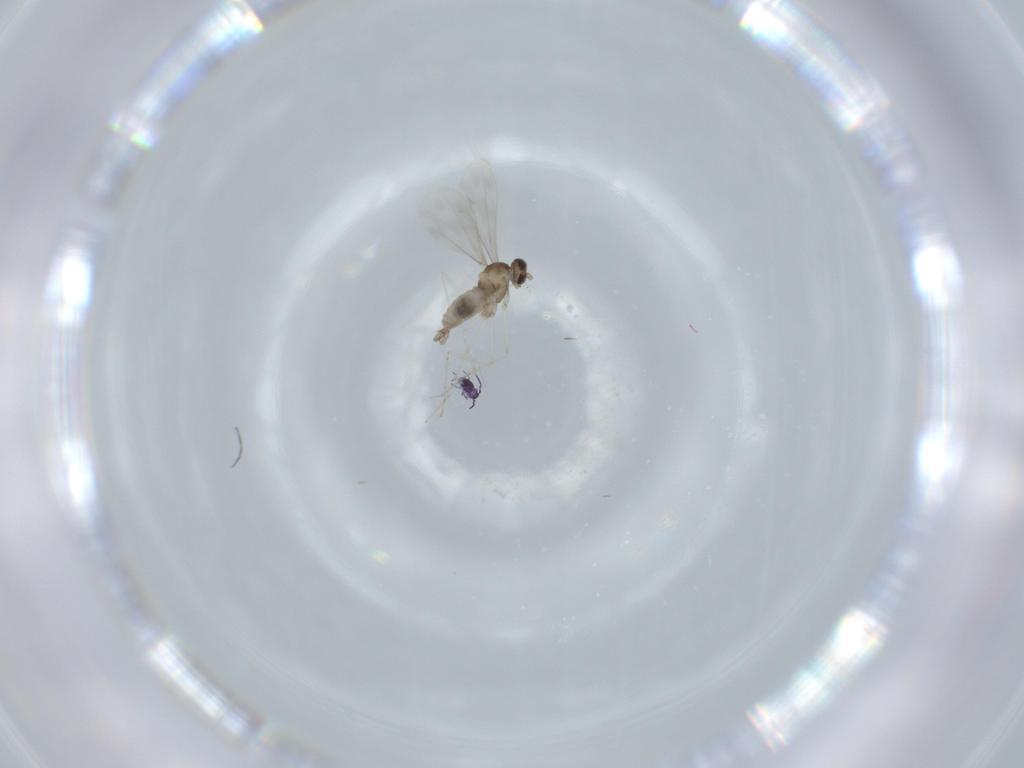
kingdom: Animalia
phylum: Arthropoda
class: Insecta
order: Diptera
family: Cecidomyiidae
